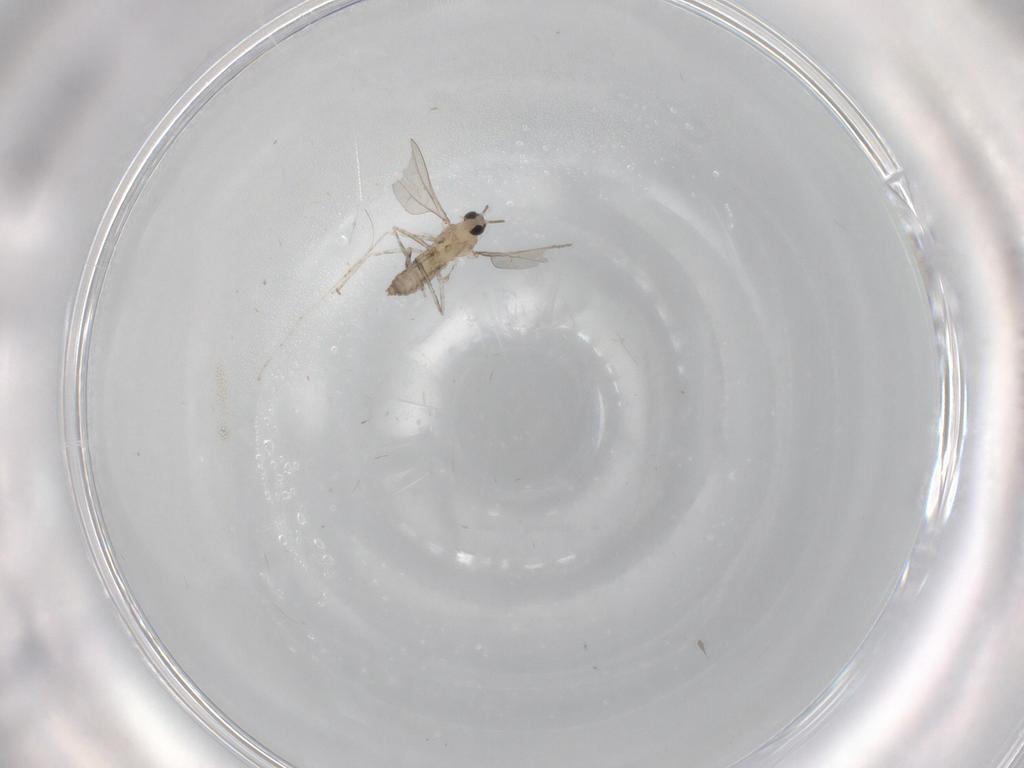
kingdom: Animalia
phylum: Arthropoda
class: Insecta
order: Diptera
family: Cecidomyiidae
